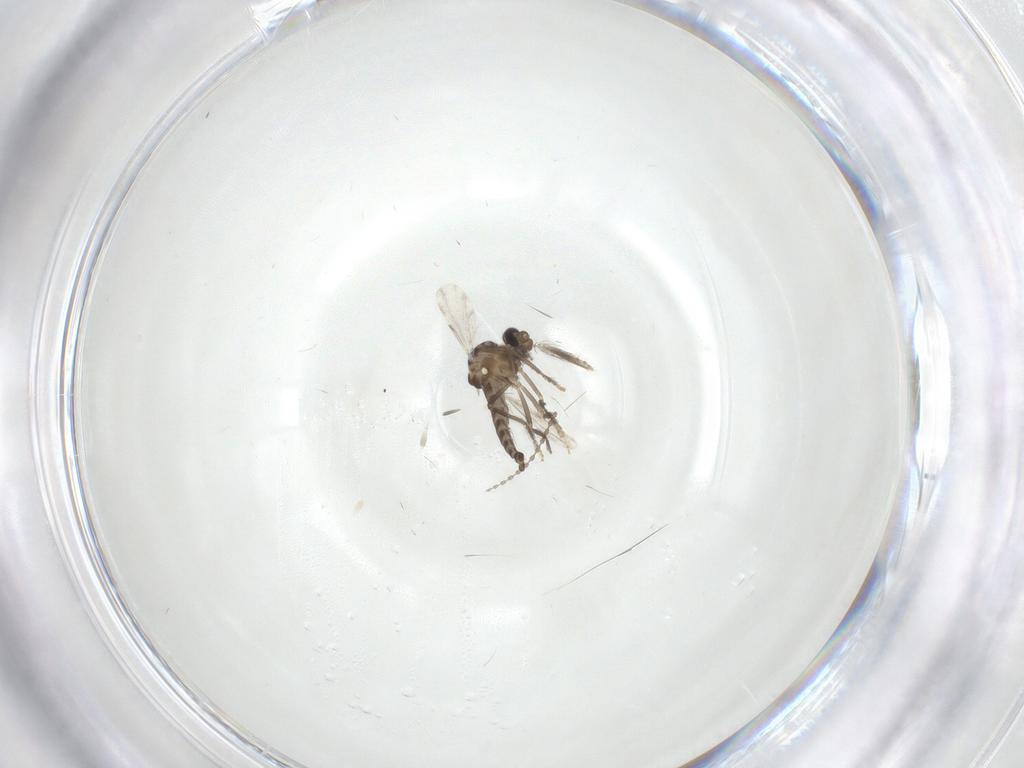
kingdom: Animalia
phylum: Arthropoda
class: Insecta
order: Diptera
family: Ceratopogonidae
